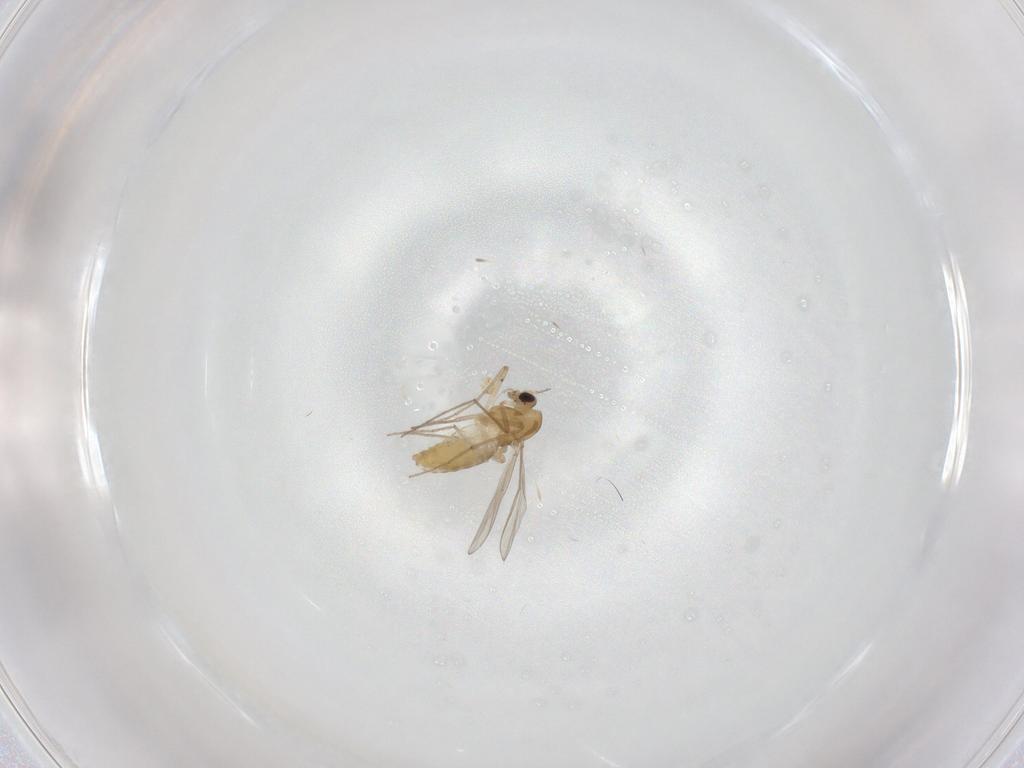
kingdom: Animalia
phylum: Arthropoda
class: Insecta
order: Diptera
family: Chironomidae
